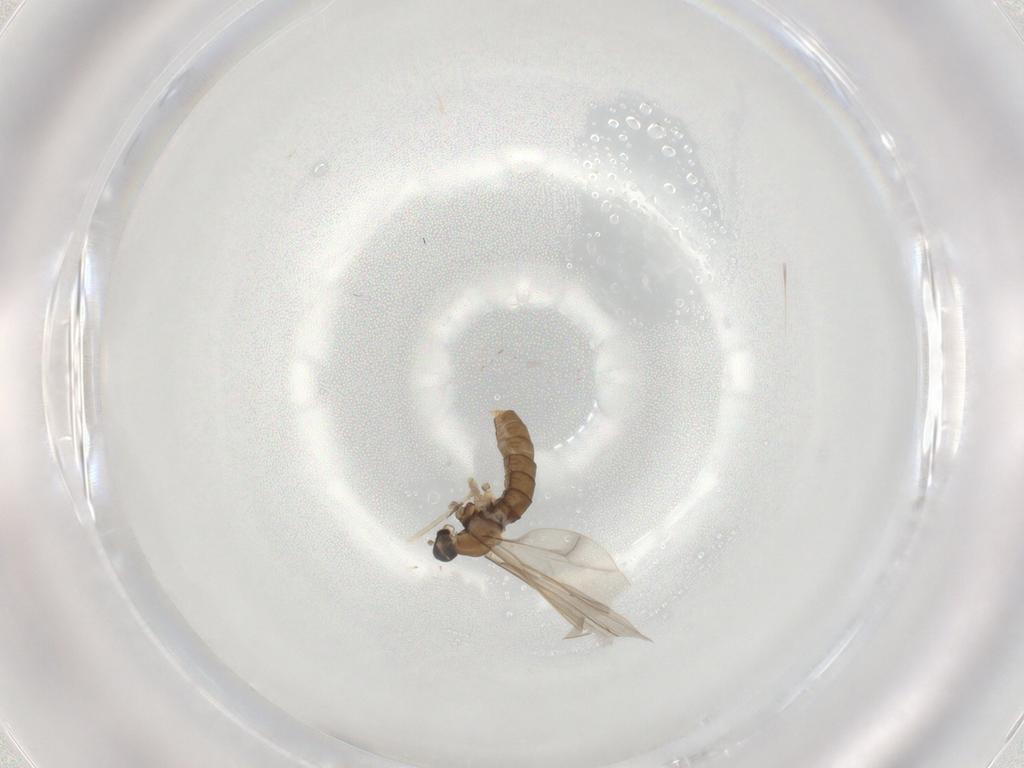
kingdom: Animalia
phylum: Arthropoda
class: Insecta
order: Diptera
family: Cecidomyiidae
